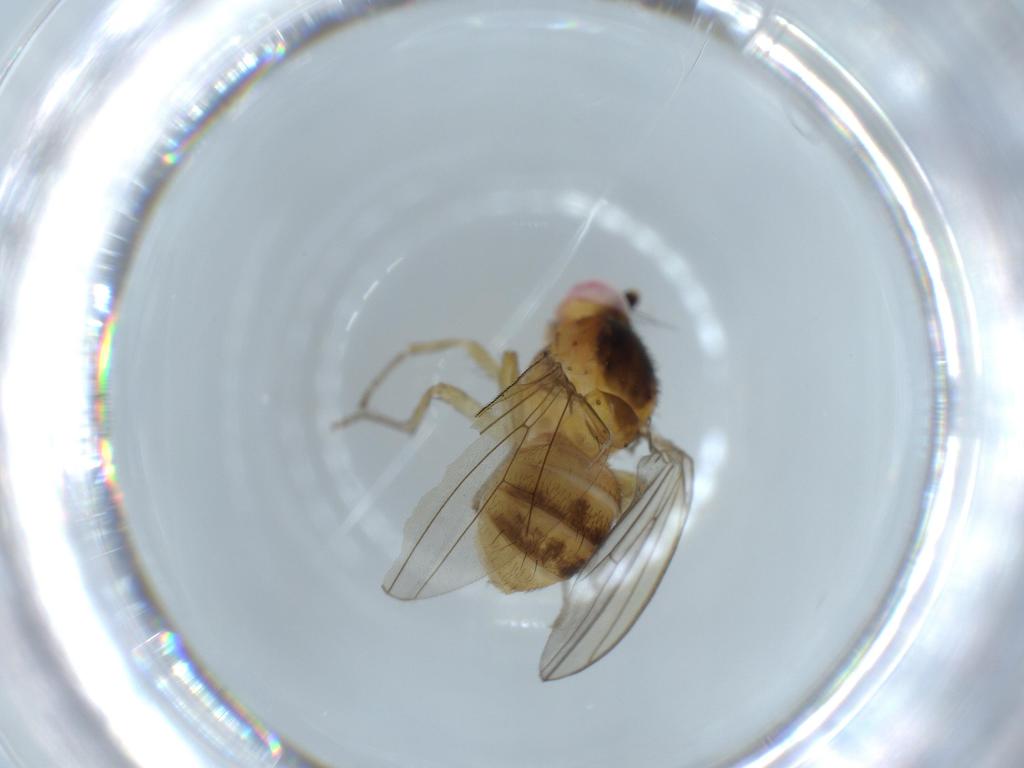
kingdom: Animalia
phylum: Arthropoda
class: Insecta
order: Diptera
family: Lauxaniidae
